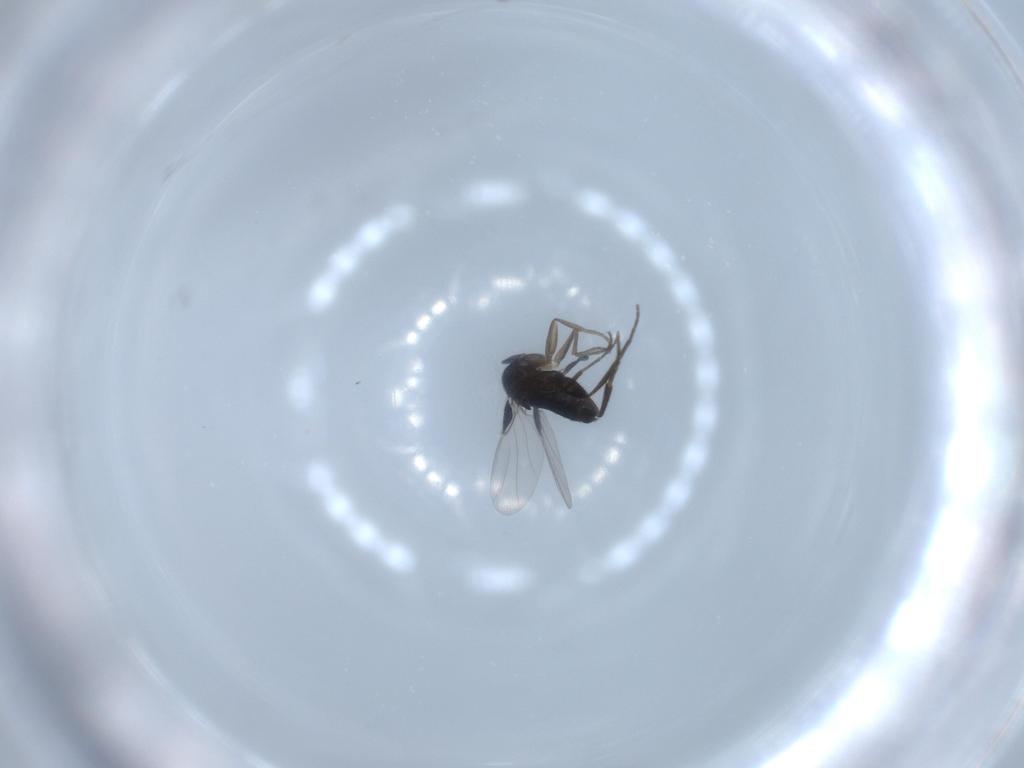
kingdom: Animalia
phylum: Arthropoda
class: Insecta
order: Diptera
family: Phoridae
